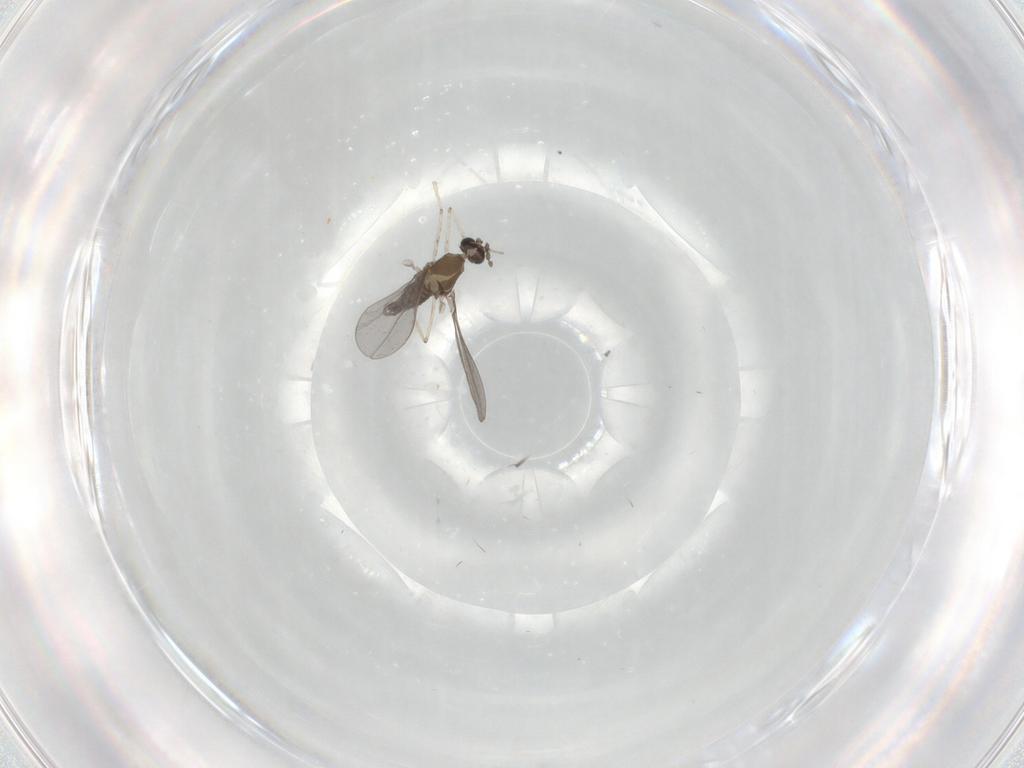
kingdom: Animalia
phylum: Arthropoda
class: Insecta
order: Diptera
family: Cecidomyiidae
